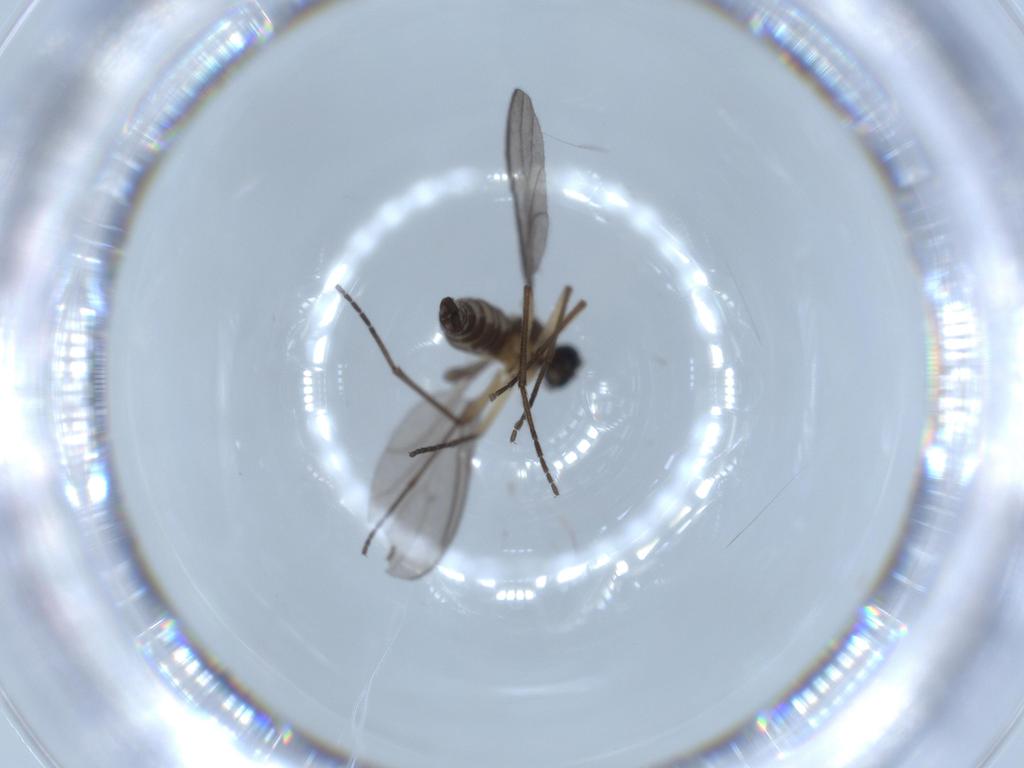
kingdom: Animalia
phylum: Arthropoda
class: Insecta
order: Diptera
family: Sciaridae
